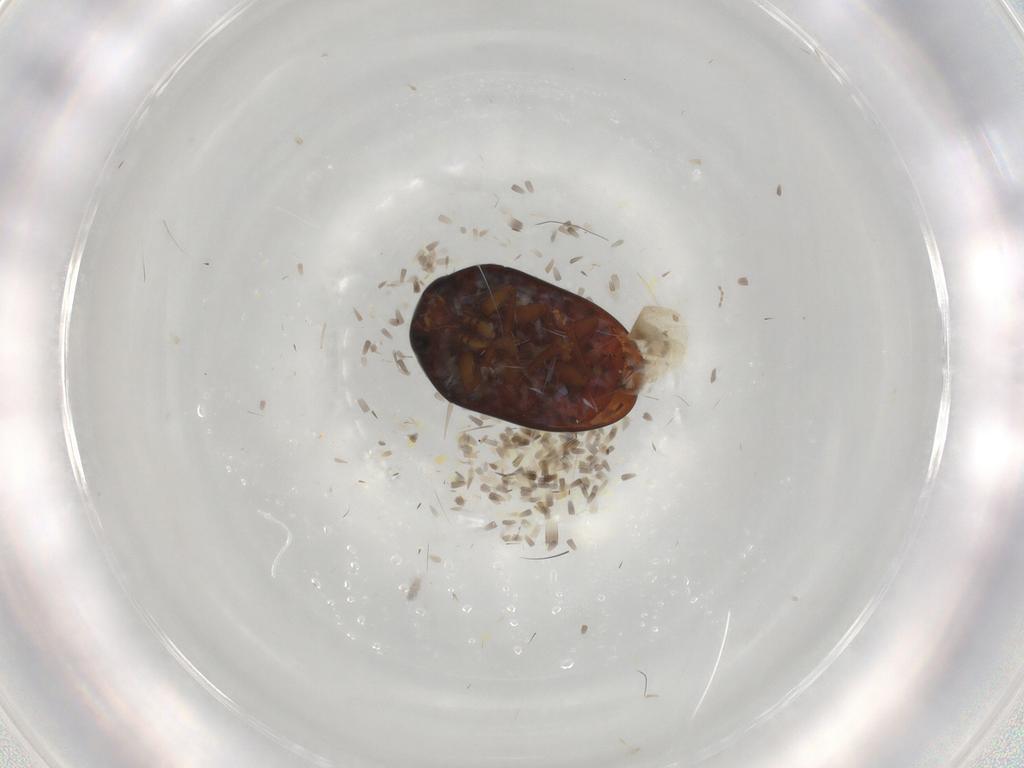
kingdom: Animalia
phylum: Arthropoda
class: Insecta
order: Coleoptera
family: Phalacridae
